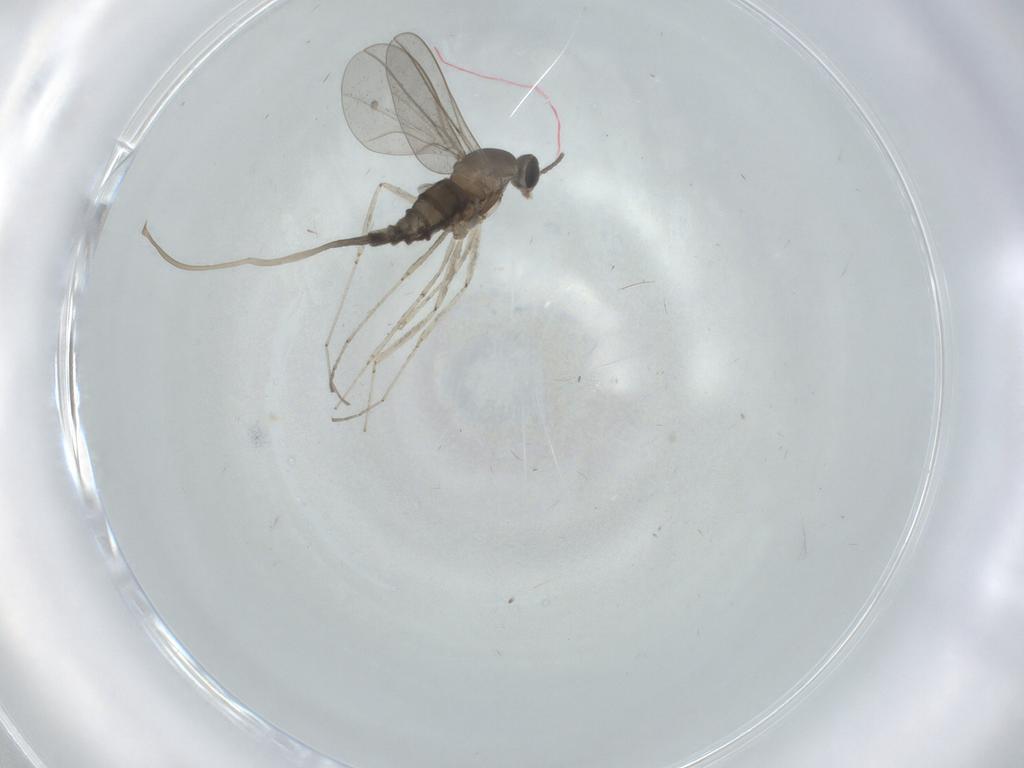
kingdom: Animalia
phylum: Arthropoda
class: Insecta
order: Diptera
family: Cecidomyiidae
